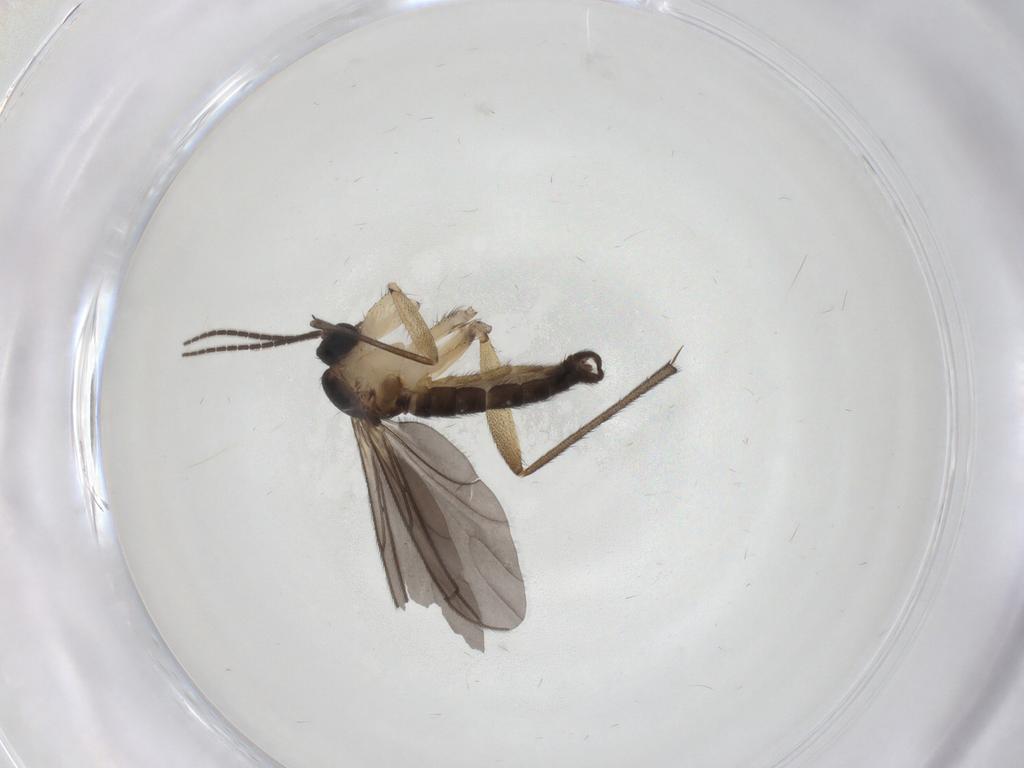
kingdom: Animalia
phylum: Arthropoda
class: Insecta
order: Diptera
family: Sciaridae
